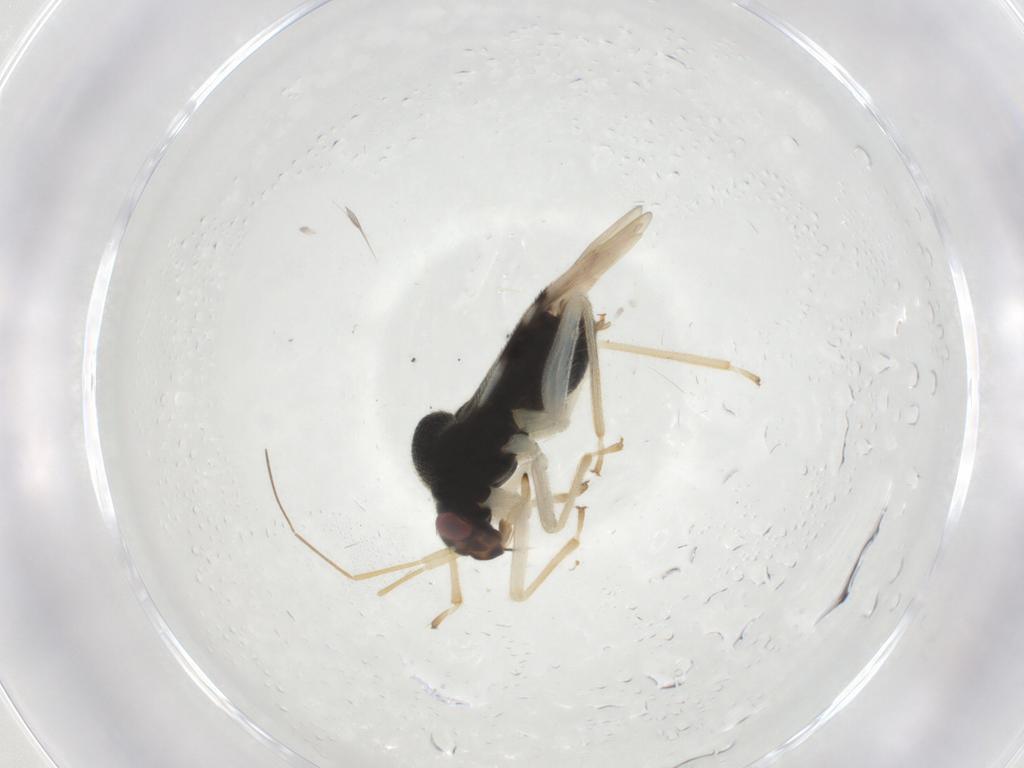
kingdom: Animalia
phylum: Arthropoda
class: Insecta
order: Hemiptera
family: Miridae
